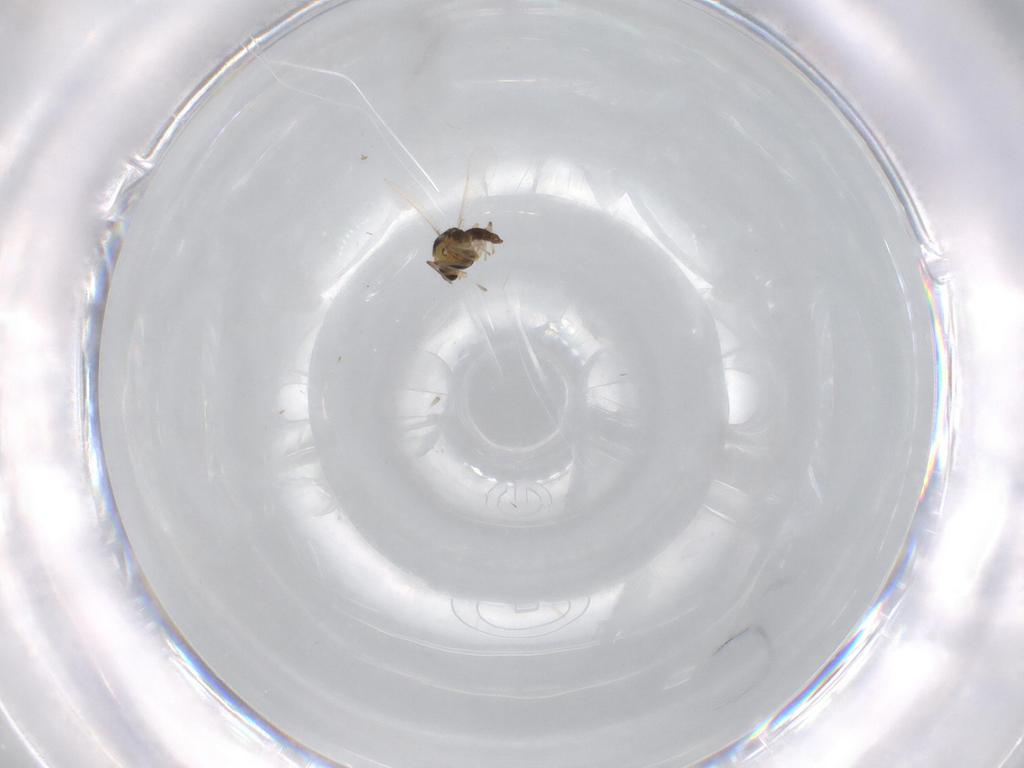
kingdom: Animalia
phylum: Arthropoda
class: Insecta
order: Diptera
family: Chironomidae
